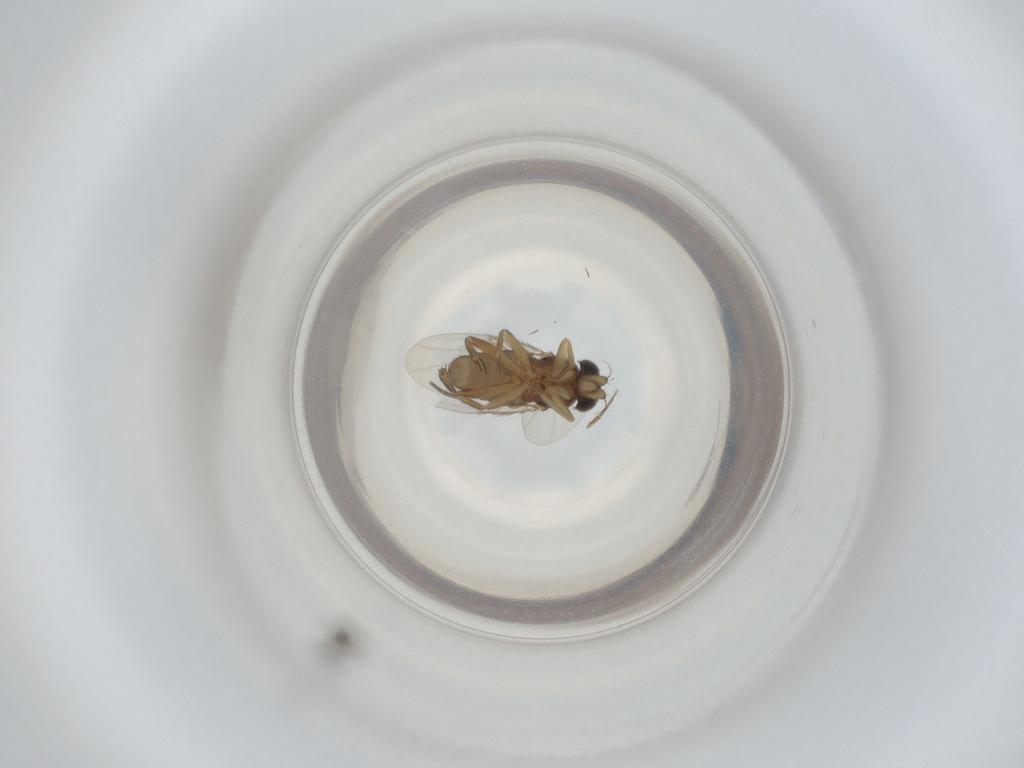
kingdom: Animalia
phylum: Arthropoda
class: Insecta
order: Diptera
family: Phoridae
